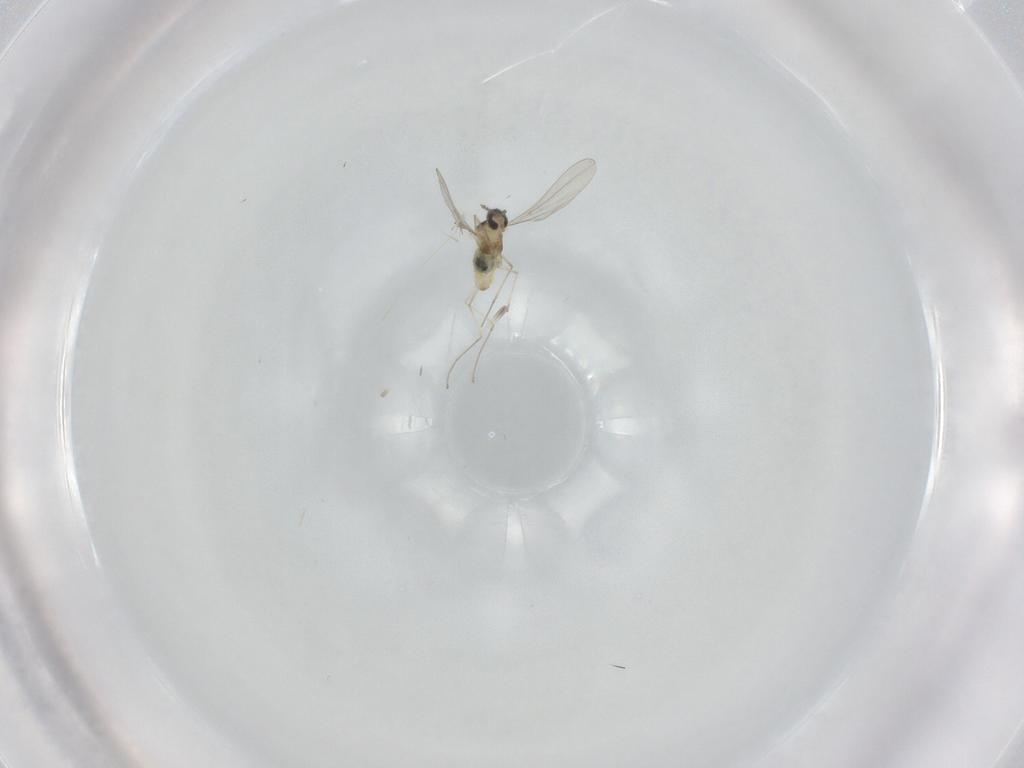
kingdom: Animalia
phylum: Arthropoda
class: Insecta
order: Diptera
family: Cecidomyiidae
